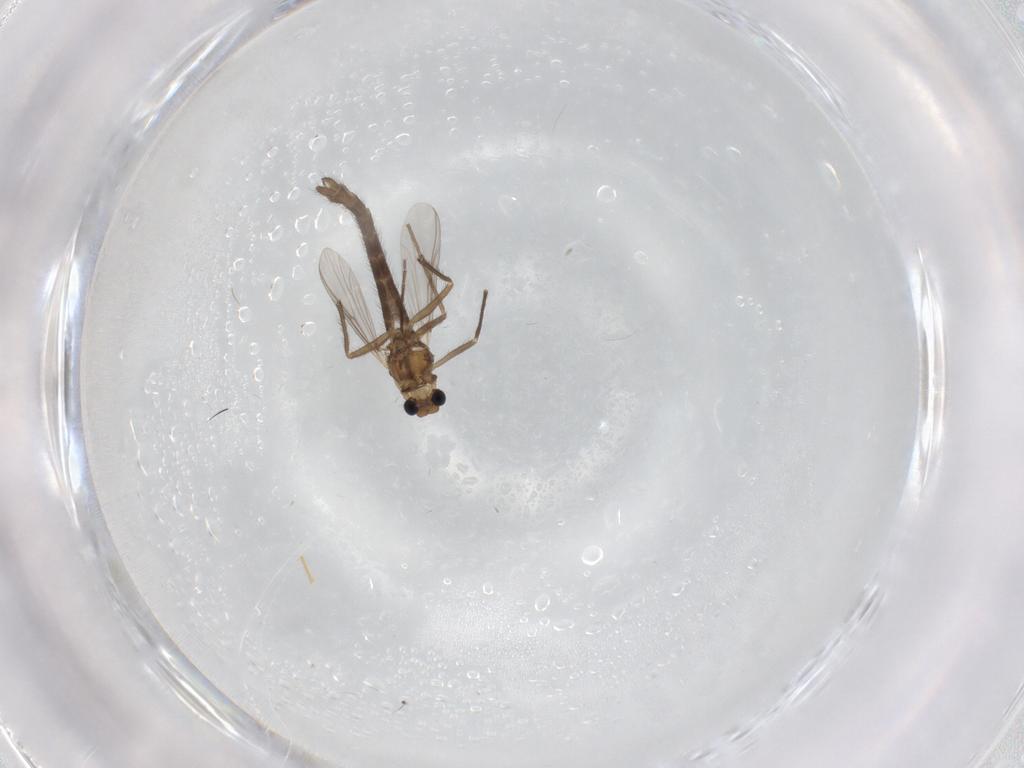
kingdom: Animalia
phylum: Arthropoda
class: Insecta
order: Diptera
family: Chironomidae
